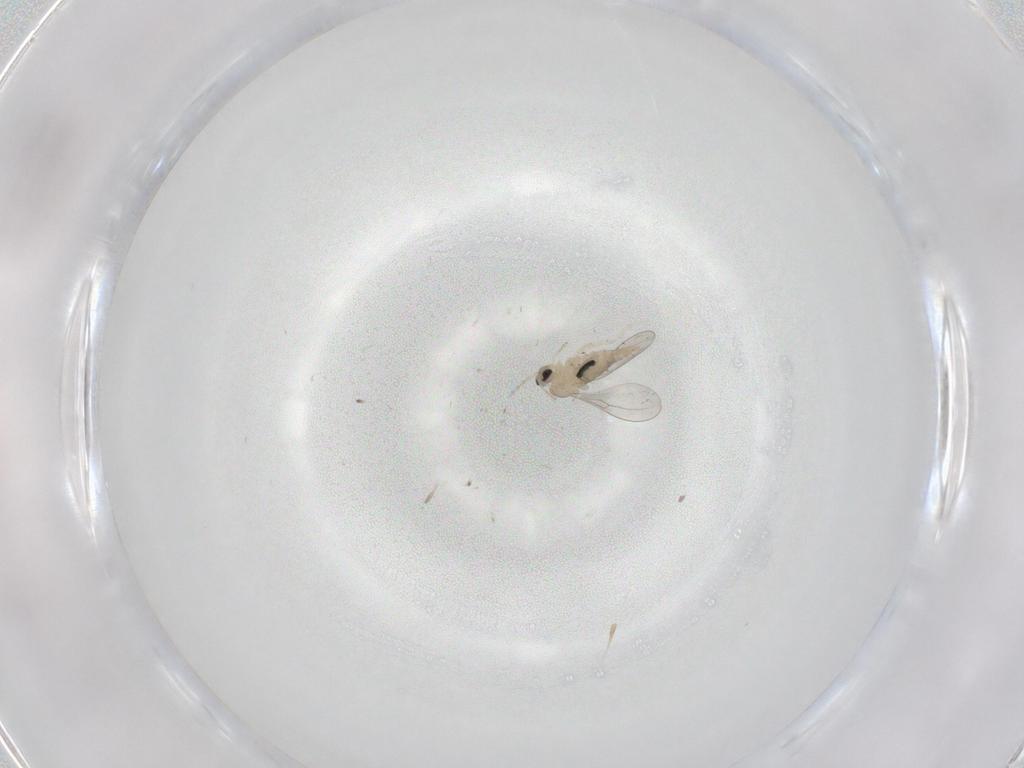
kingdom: Animalia
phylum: Arthropoda
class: Insecta
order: Diptera
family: Cecidomyiidae
